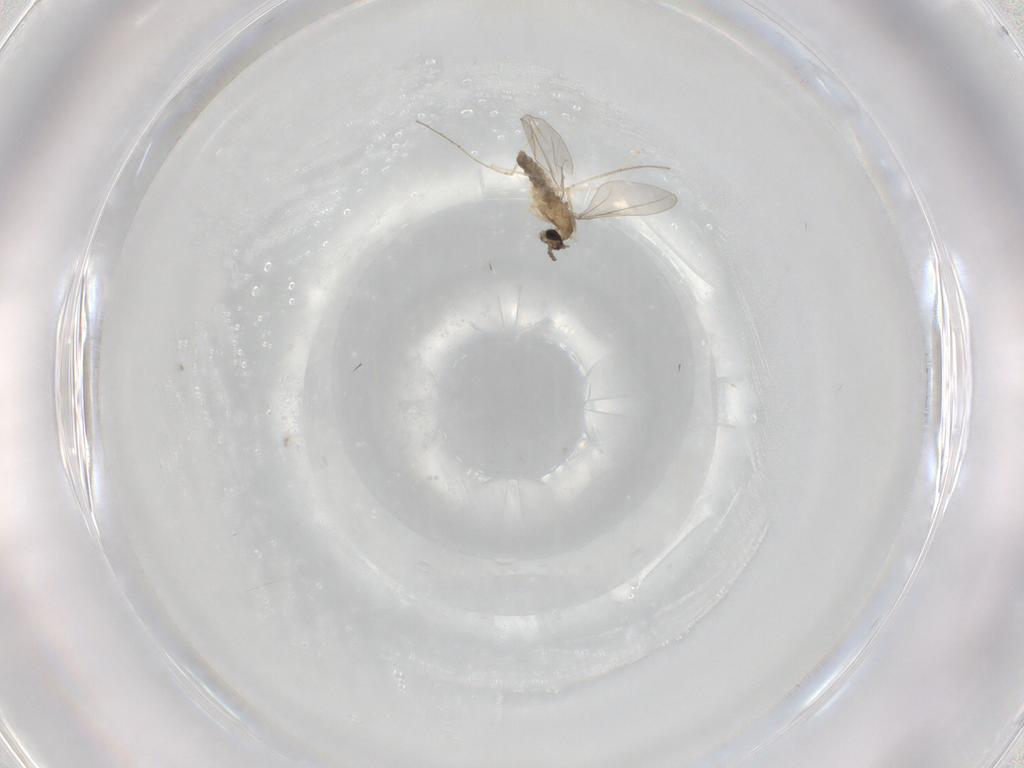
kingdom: Animalia
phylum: Arthropoda
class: Insecta
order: Diptera
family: Cecidomyiidae
